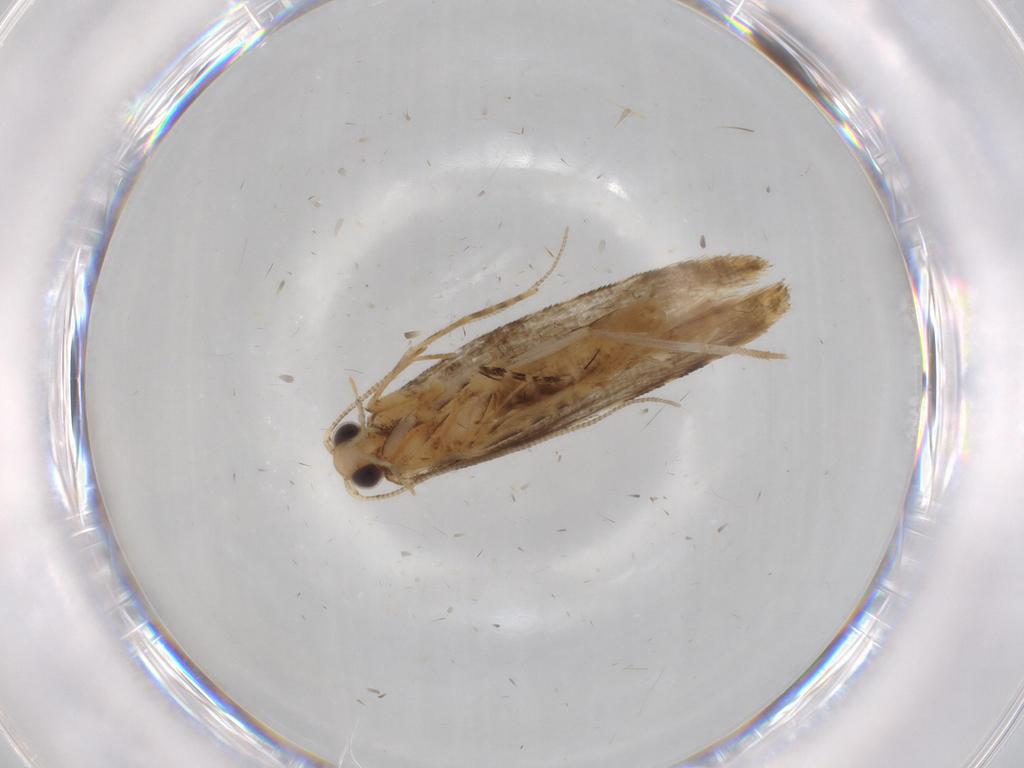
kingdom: Animalia
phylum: Arthropoda
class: Insecta
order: Lepidoptera
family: Tineidae
